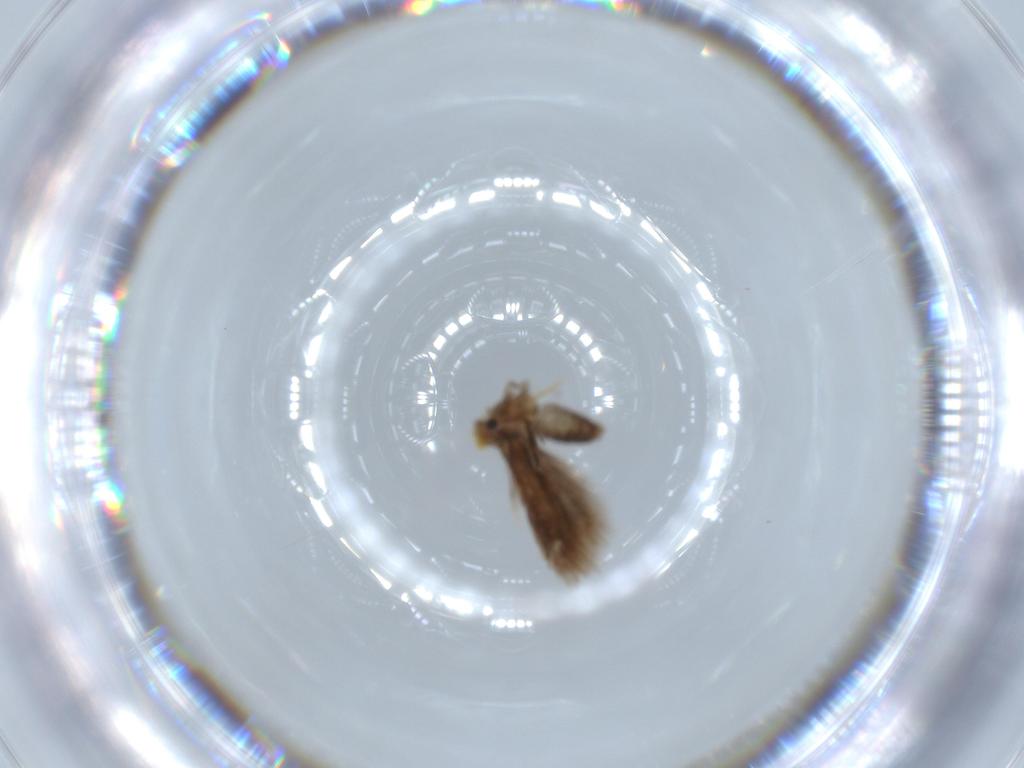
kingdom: Animalia
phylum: Arthropoda
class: Insecta
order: Lepidoptera
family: Nepticulidae
